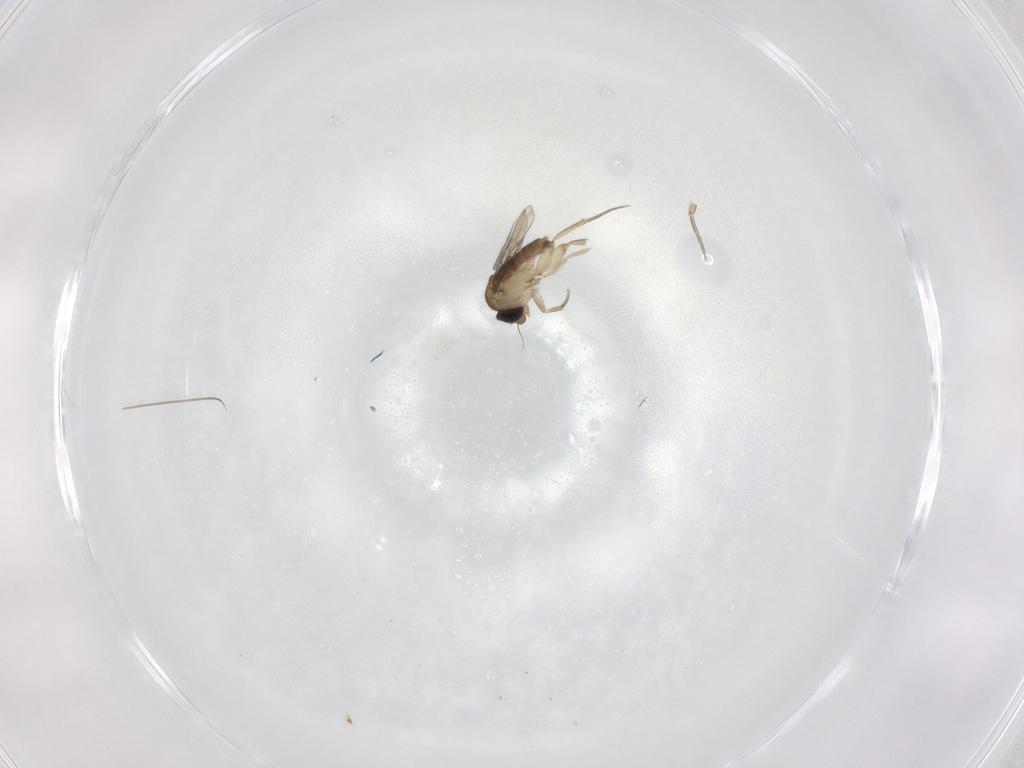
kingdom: Animalia
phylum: Arthropoda
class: Insecta
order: Diptera
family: Phoridae
